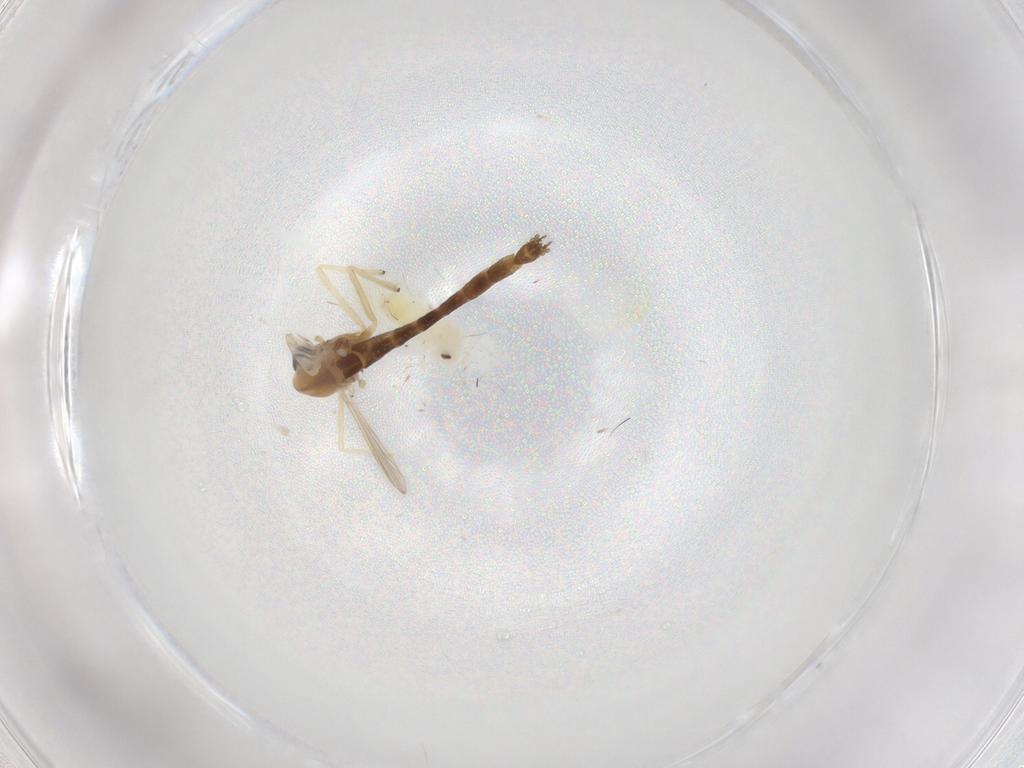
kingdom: Animalia
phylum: Arthropoda
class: Insecta
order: Hemiptera
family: Aleyrodidae
